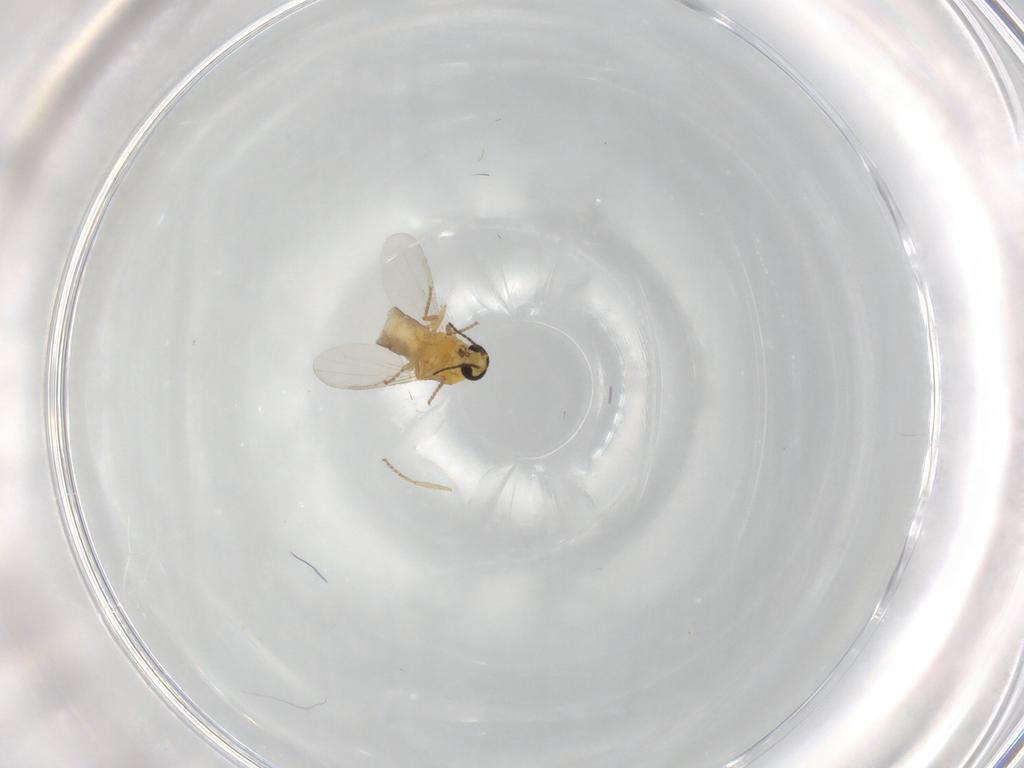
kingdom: Animalia
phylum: Arthropoda
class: Insecta
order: Diptera
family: Ceratopogonidae
